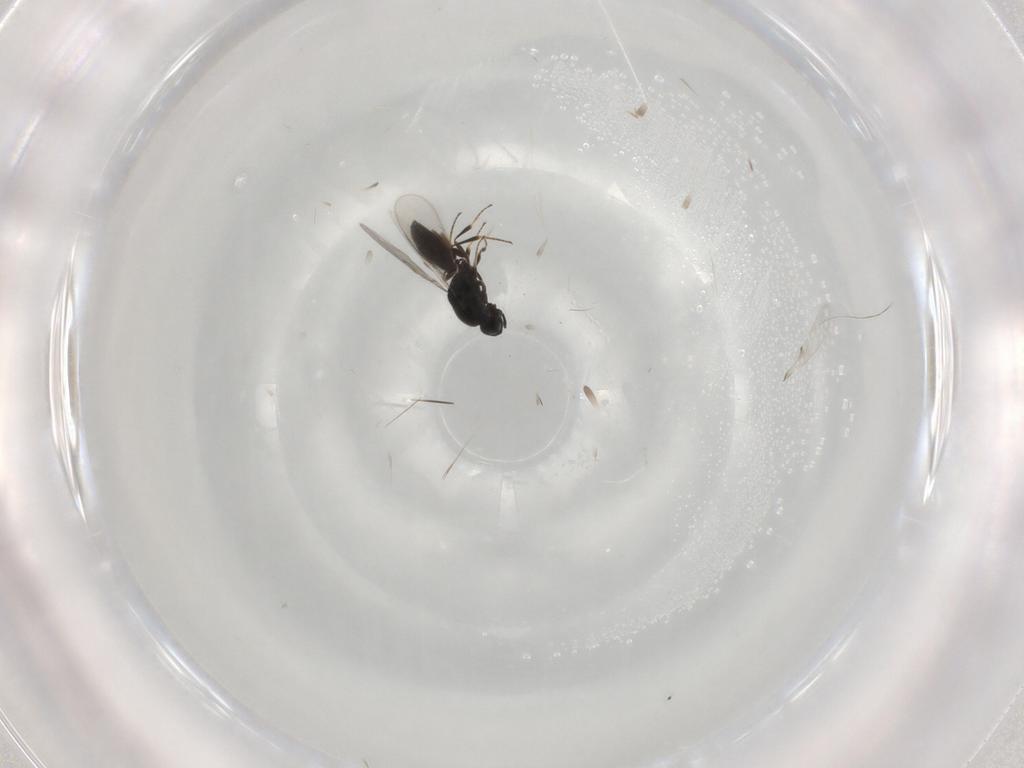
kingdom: Animalia
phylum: Arthropoda
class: Insecta
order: Hymenoptera
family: Scelionidae
